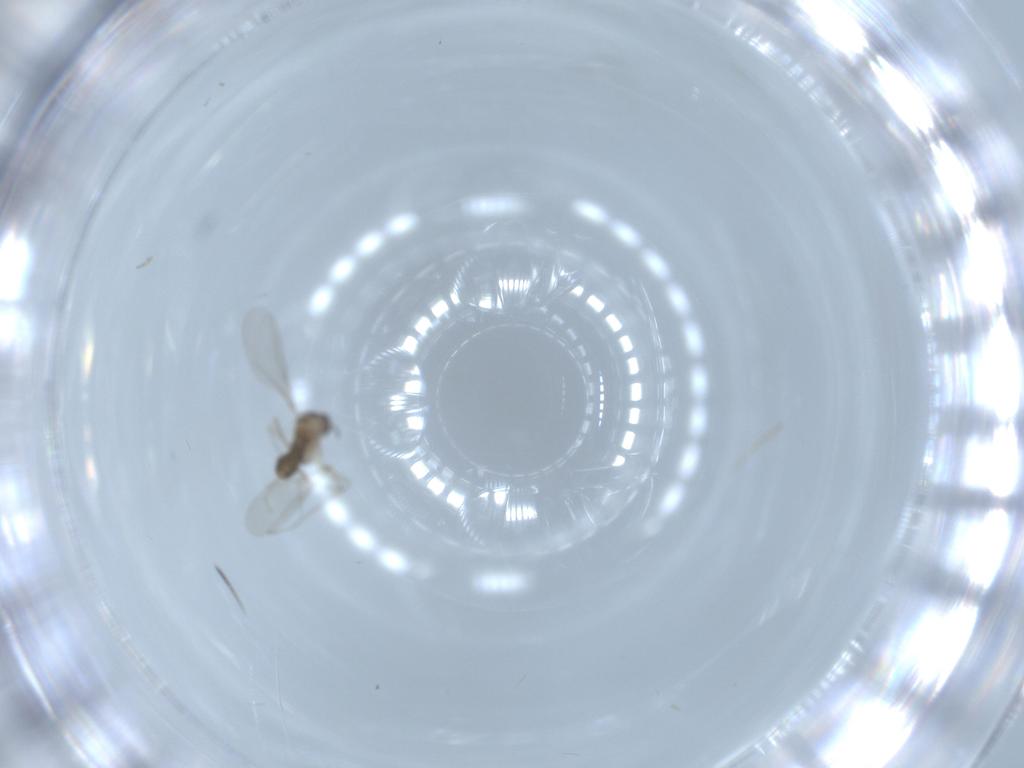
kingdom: Animalia
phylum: Arthropoda
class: Insecta
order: Diptera
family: Cecidomyiidae
